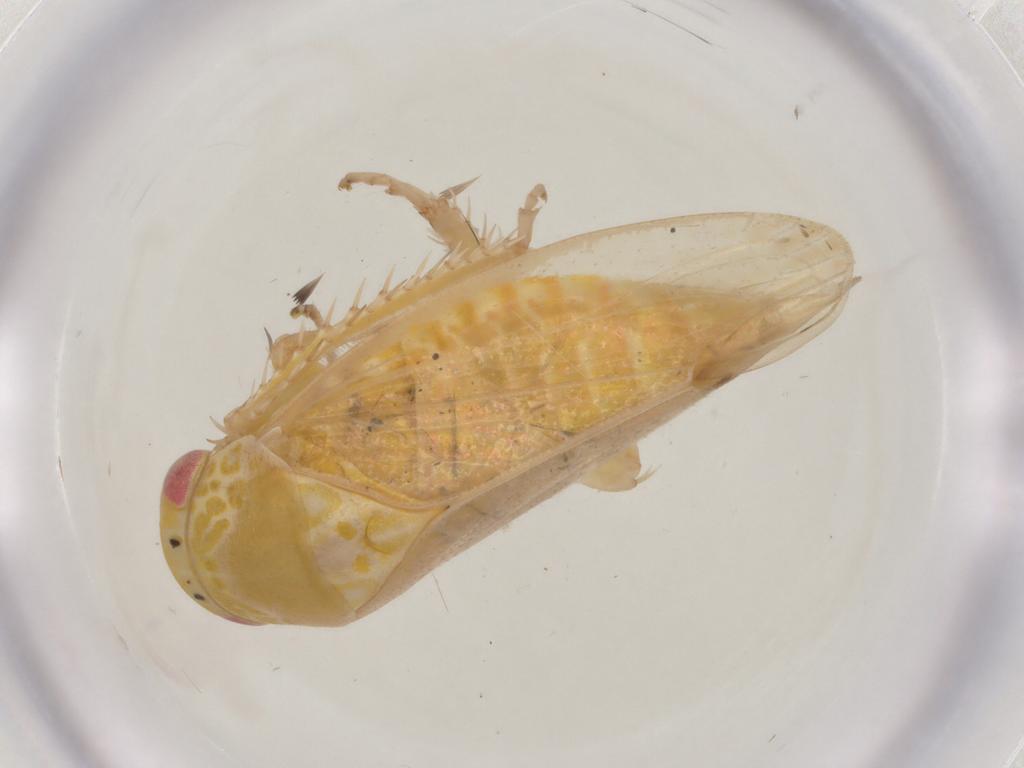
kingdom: Animalia
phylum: Arthropoda
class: Insecta
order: Hemiptera
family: Cicadellidae
